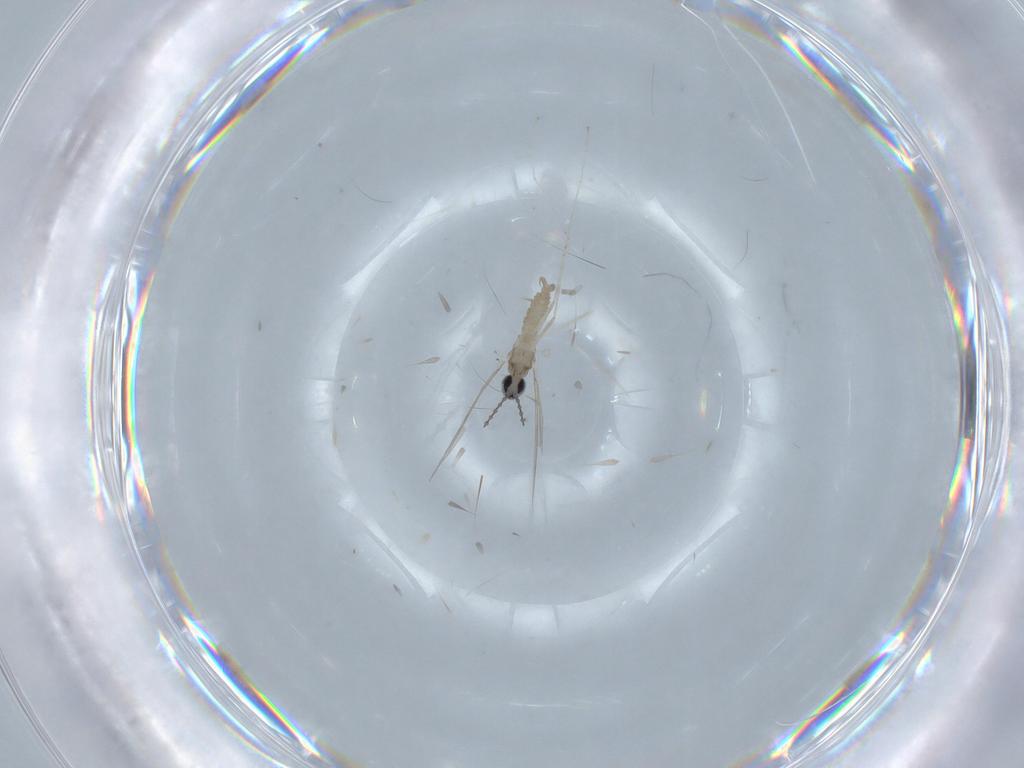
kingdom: Animalia
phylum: Arthropoda
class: Insecta
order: Diptera
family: Cecidomyiidae
